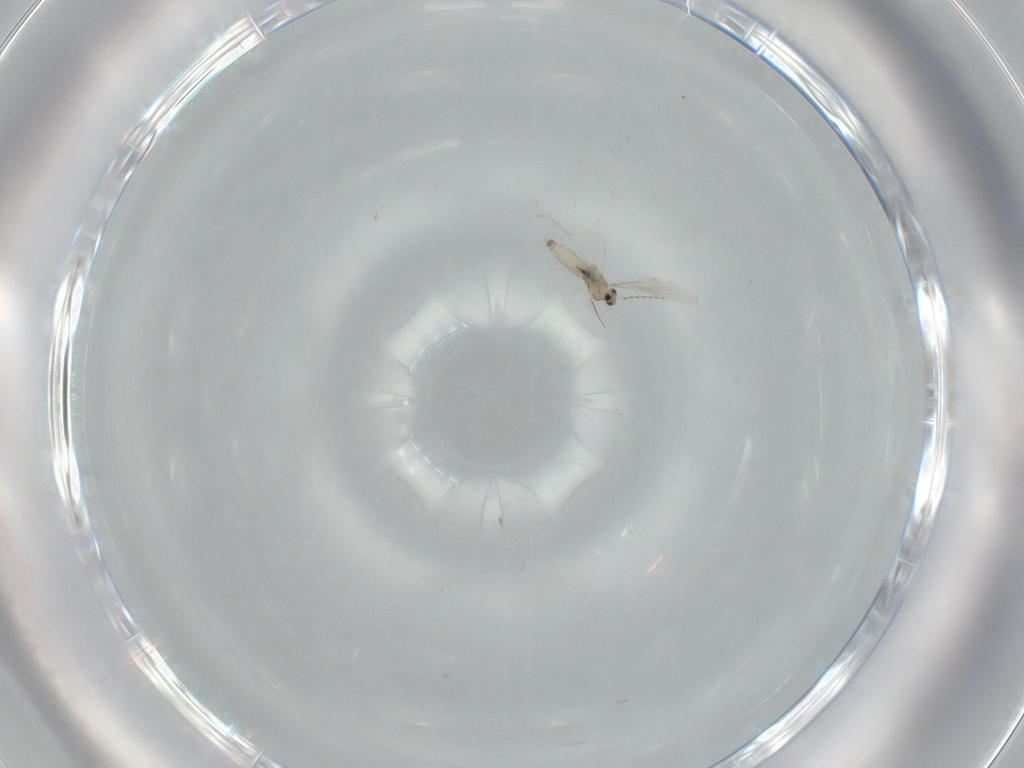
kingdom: Animalia
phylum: Arthropoda
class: Insecta
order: Diptera
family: Cecidomyiidae
